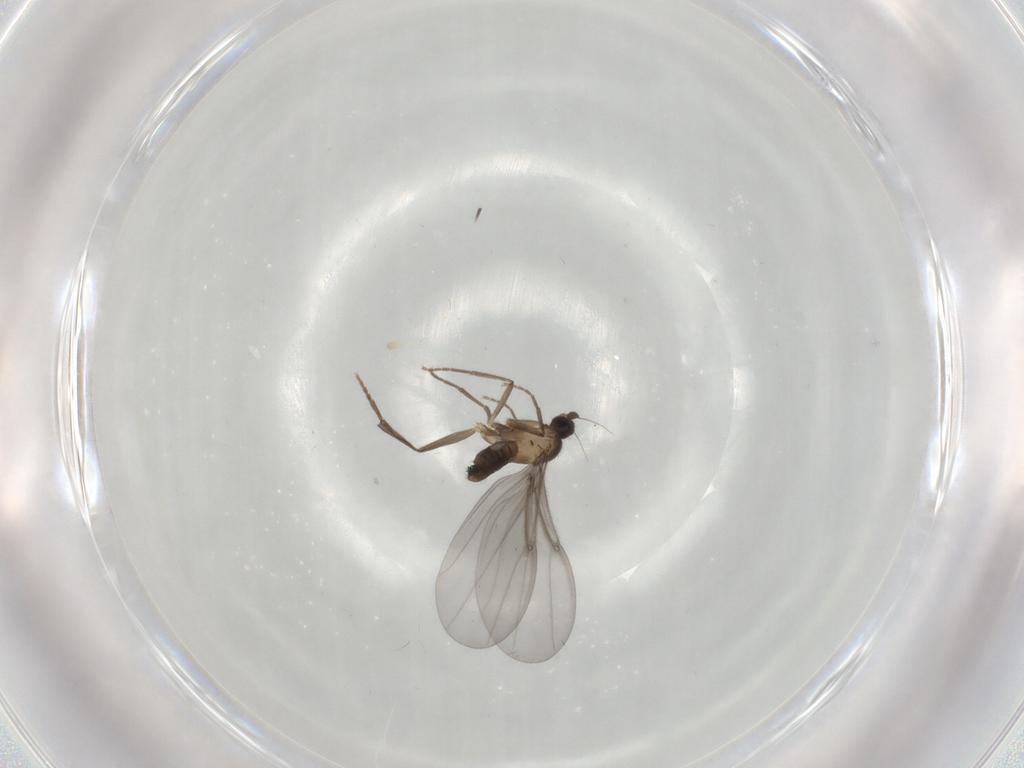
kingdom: Animalia
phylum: Arthropoda
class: Insecta
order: Diptera
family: Phoridae
